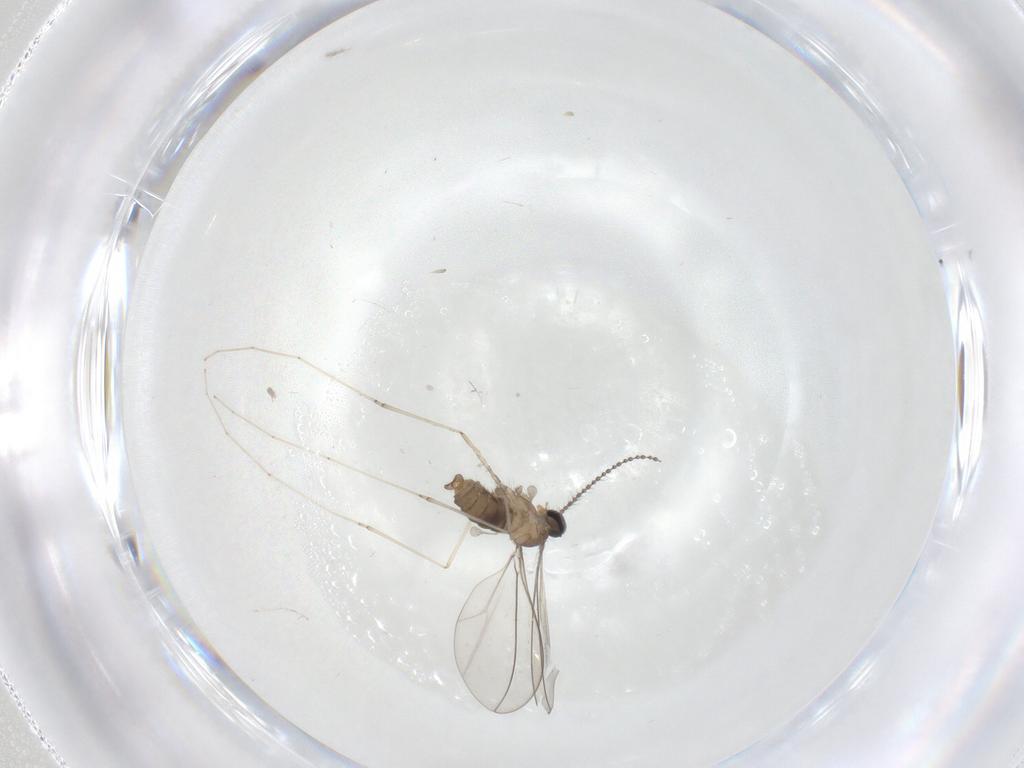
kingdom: Animalia
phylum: Arthropoda
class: Insecta
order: Diptera
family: Cecidomyiidae
